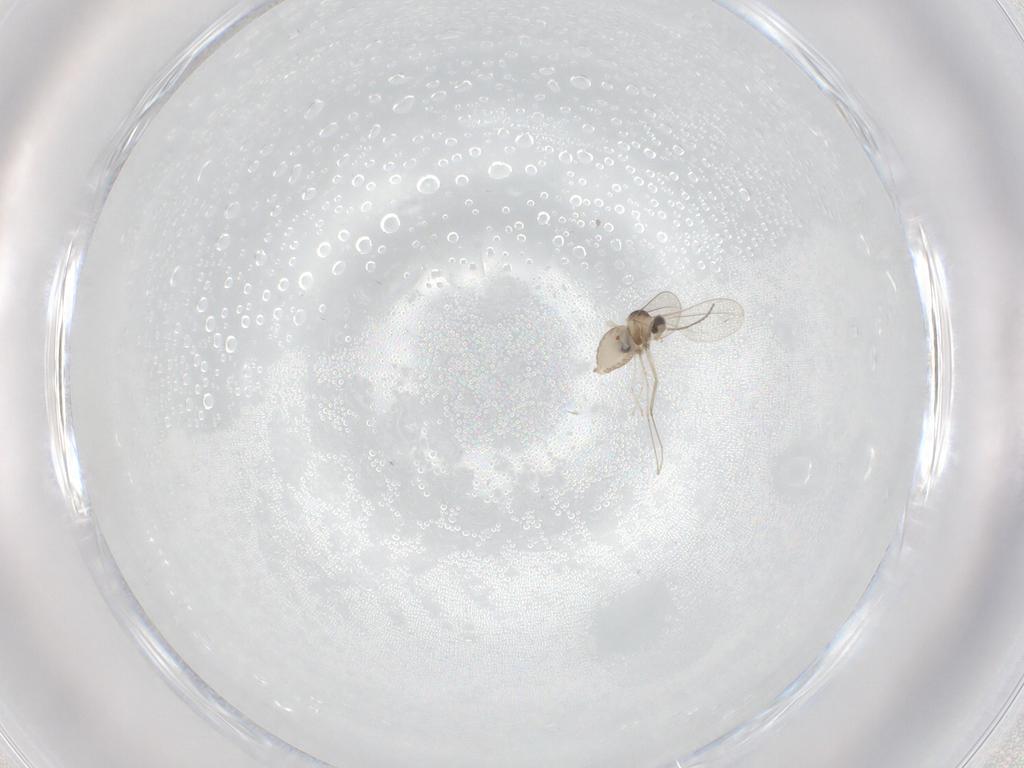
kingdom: Animalia
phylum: Arthropoda
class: Insecta
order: Diptera
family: Cecidomyiidae
